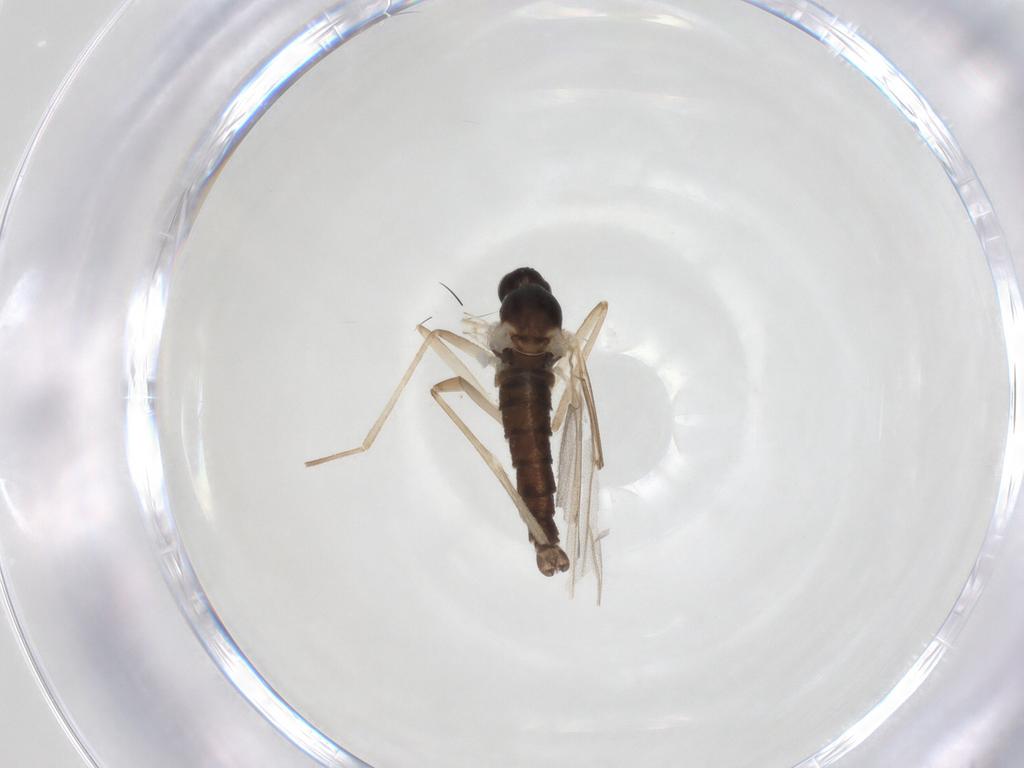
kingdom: Animalia
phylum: Arthropoda
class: Insecta
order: Diptera
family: Cecidomyiidae
